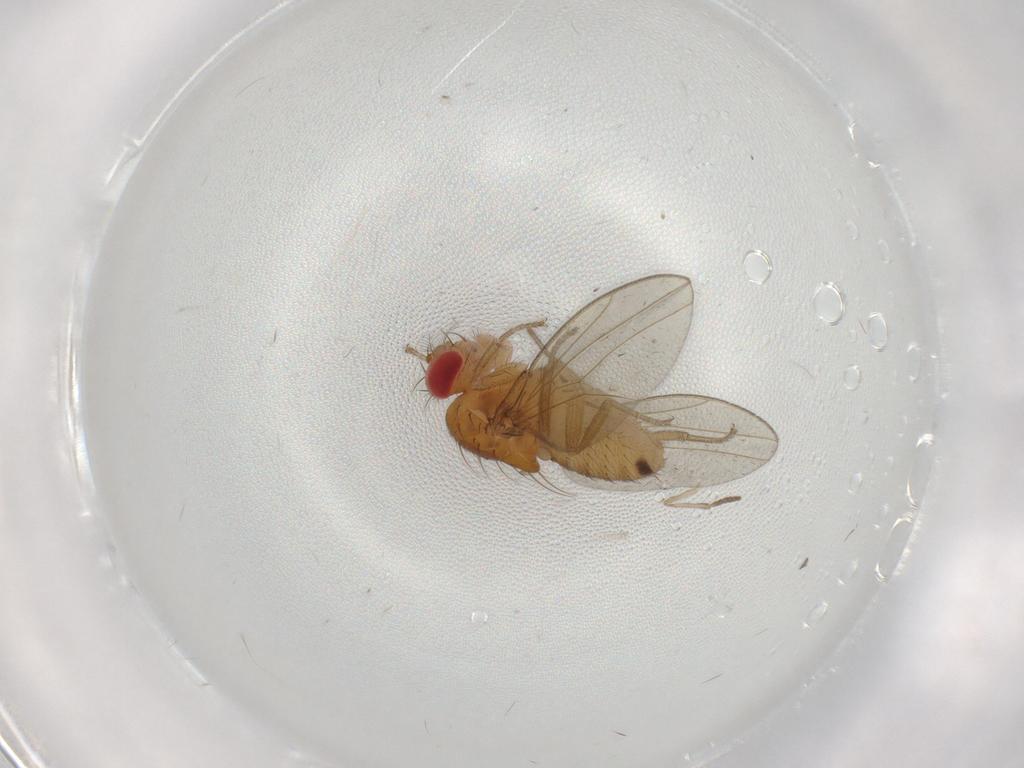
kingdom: Animalia
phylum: Arthropoda
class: Insecta
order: Diptera
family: Drosophilidae
